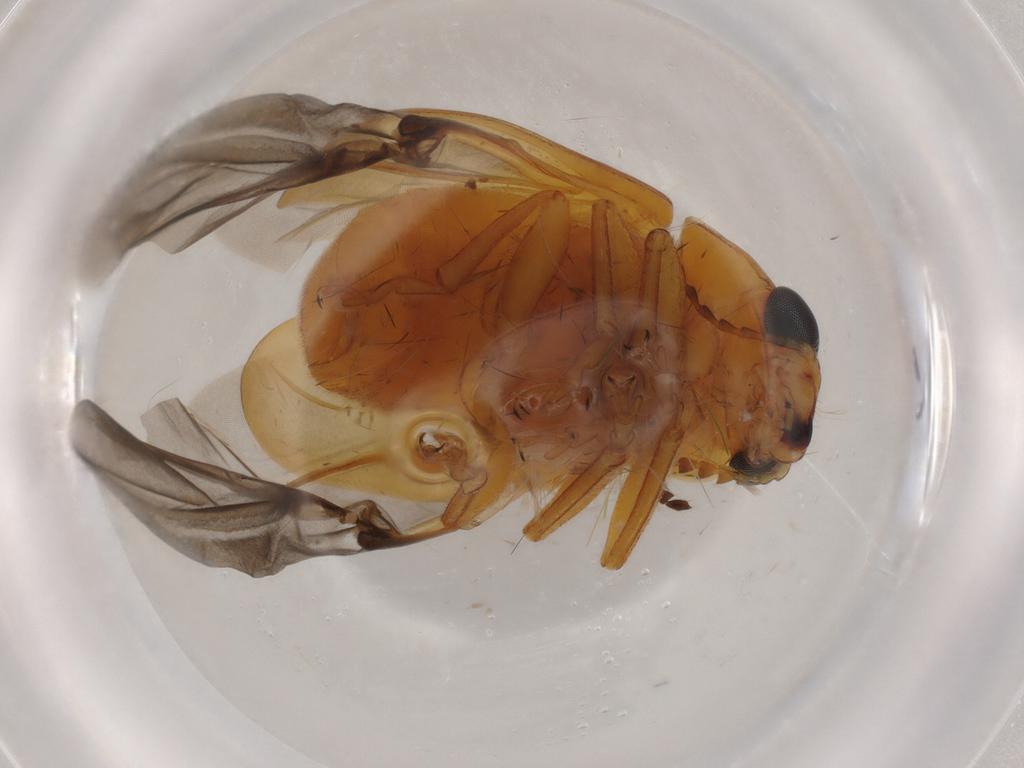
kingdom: Animalia
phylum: Arthropoda
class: Insecta
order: Coleoptera
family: Chrysomelidae
